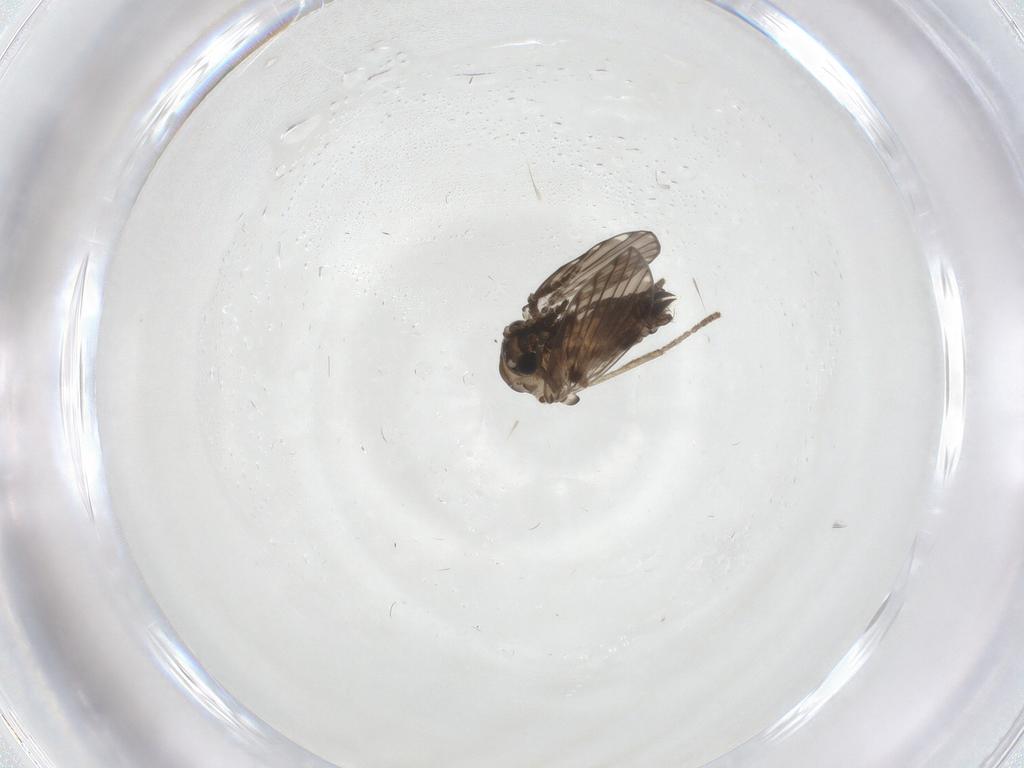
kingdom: Animalia
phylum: Arthropoda
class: Insecta
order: Diptera
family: Psychodidae
